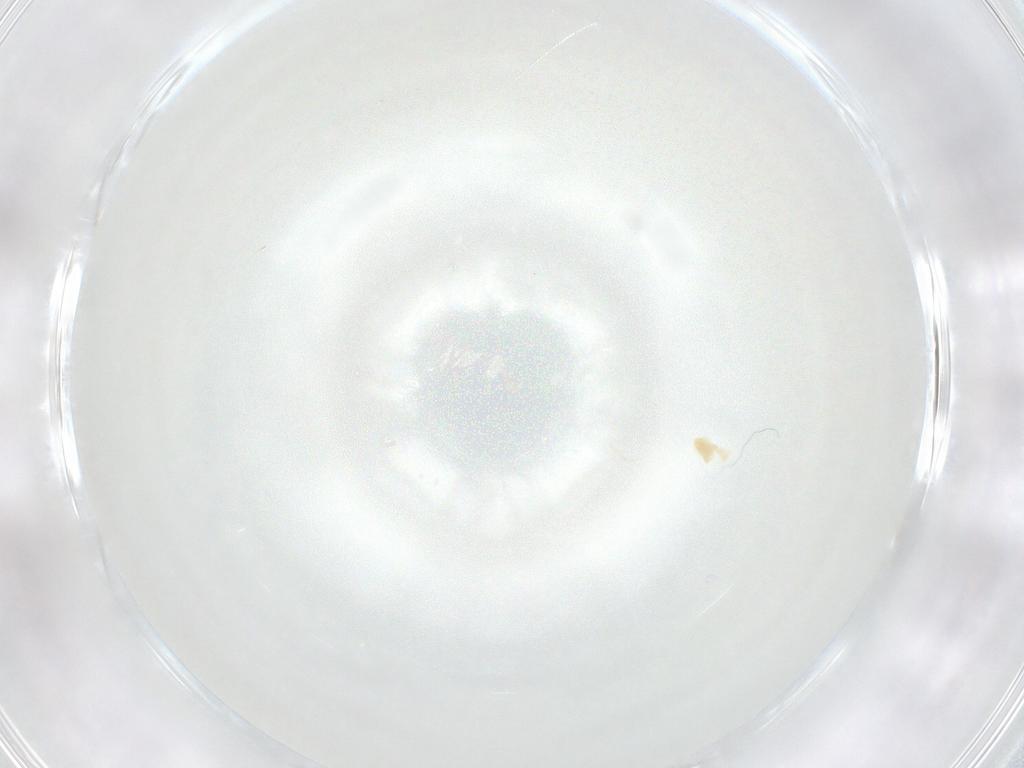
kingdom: Animalia
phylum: Arthropoda
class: Arachnida
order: Trombidiformes
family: Eupodidae
